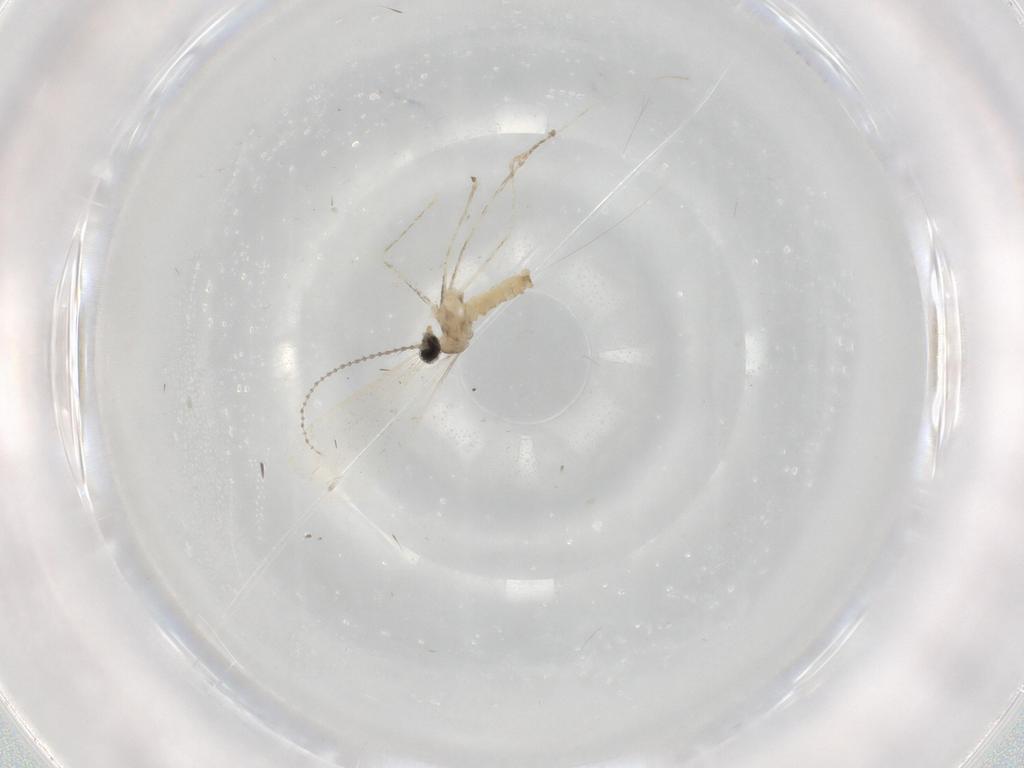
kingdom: Animalia
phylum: Arthropoda
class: Insecta
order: Diptera
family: Cecidomyiidae
